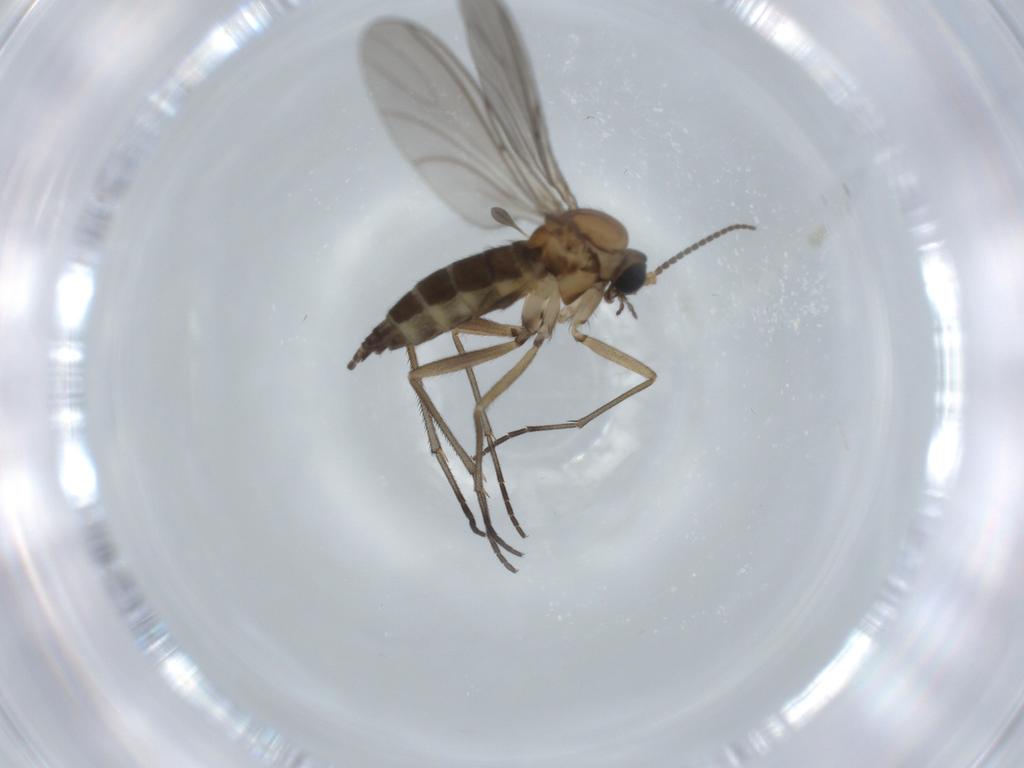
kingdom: Animalia
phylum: Arthropoda
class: Insecta
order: Diptera
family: Sciaridae
